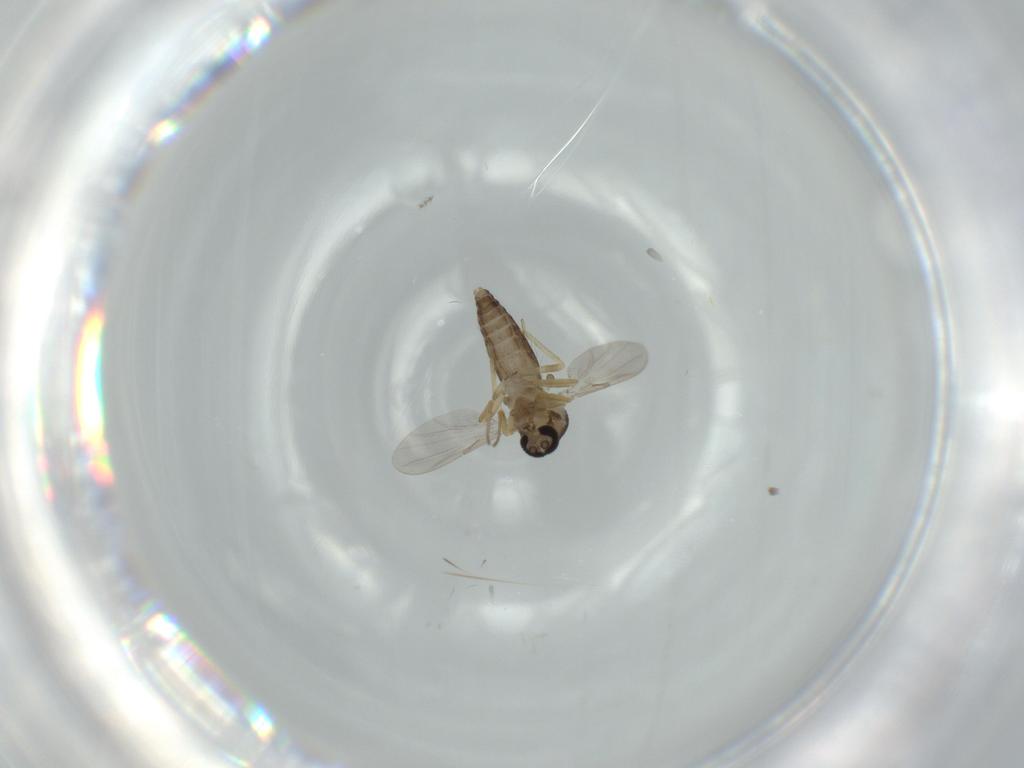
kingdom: Animalia
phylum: Arthropoda
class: Insecta
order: Diptera
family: Ceratopogonidae
